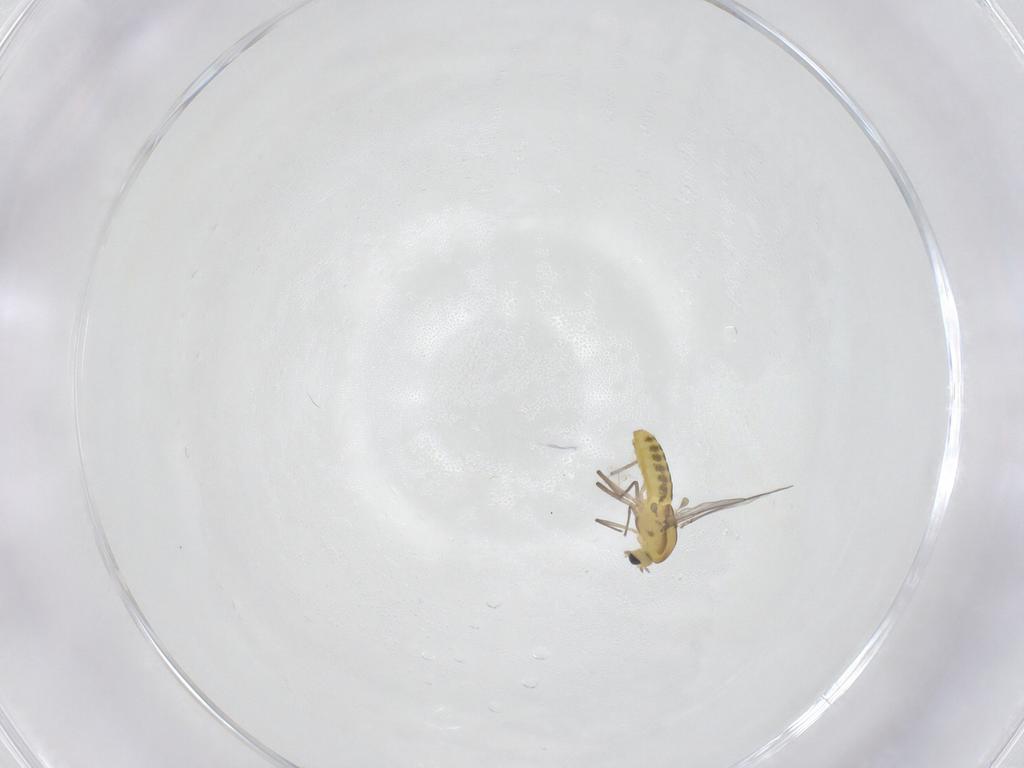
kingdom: Animalia
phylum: Arthropoda
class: Insecta
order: Diptera
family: Chironomidae
